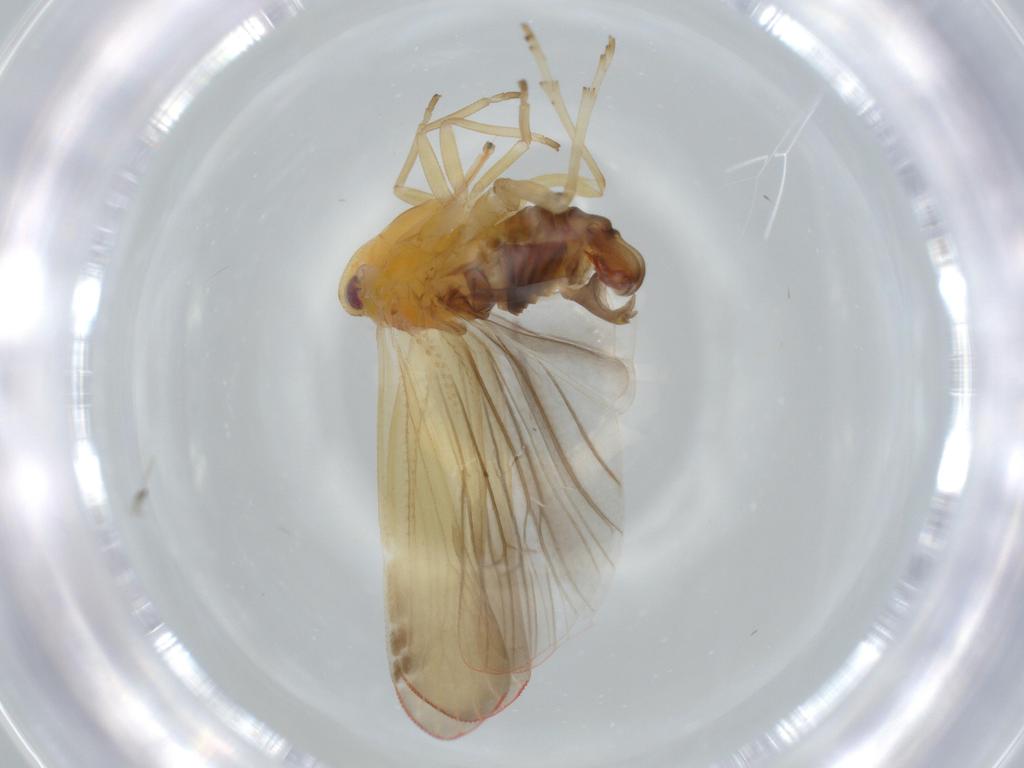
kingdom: Animalia
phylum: Arthropoda
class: Insecta
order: Hemiptera
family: Derbidae
